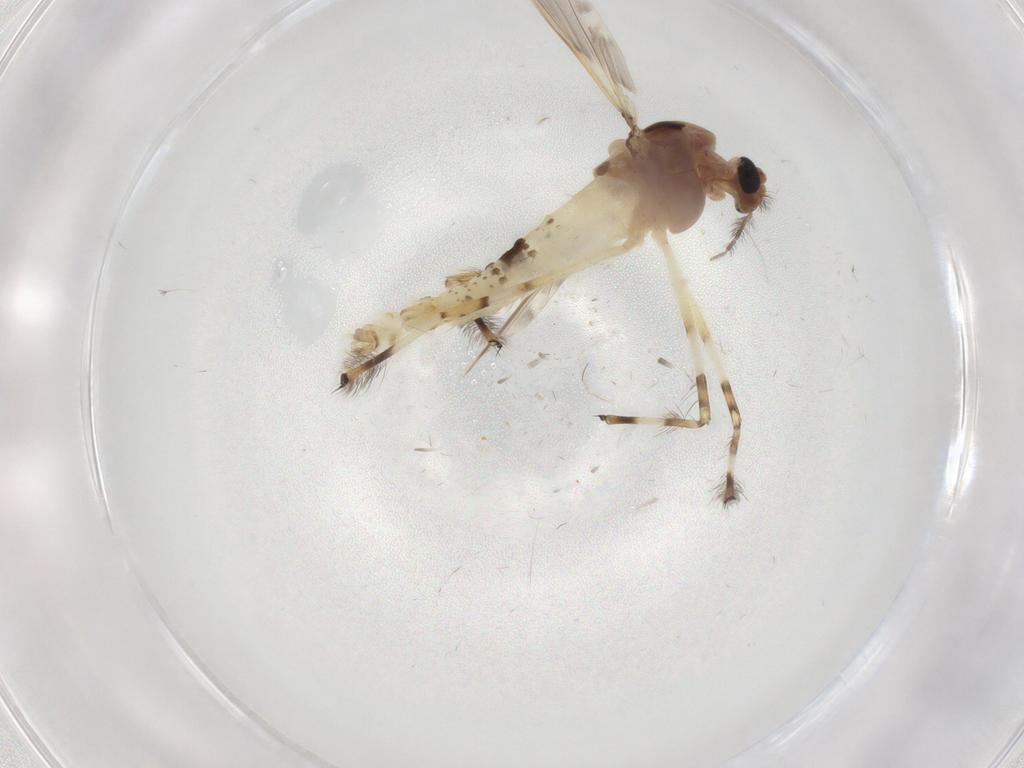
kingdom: Animalia
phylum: Arthropoda
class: Insecta
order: Diptera
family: Chironomidae
